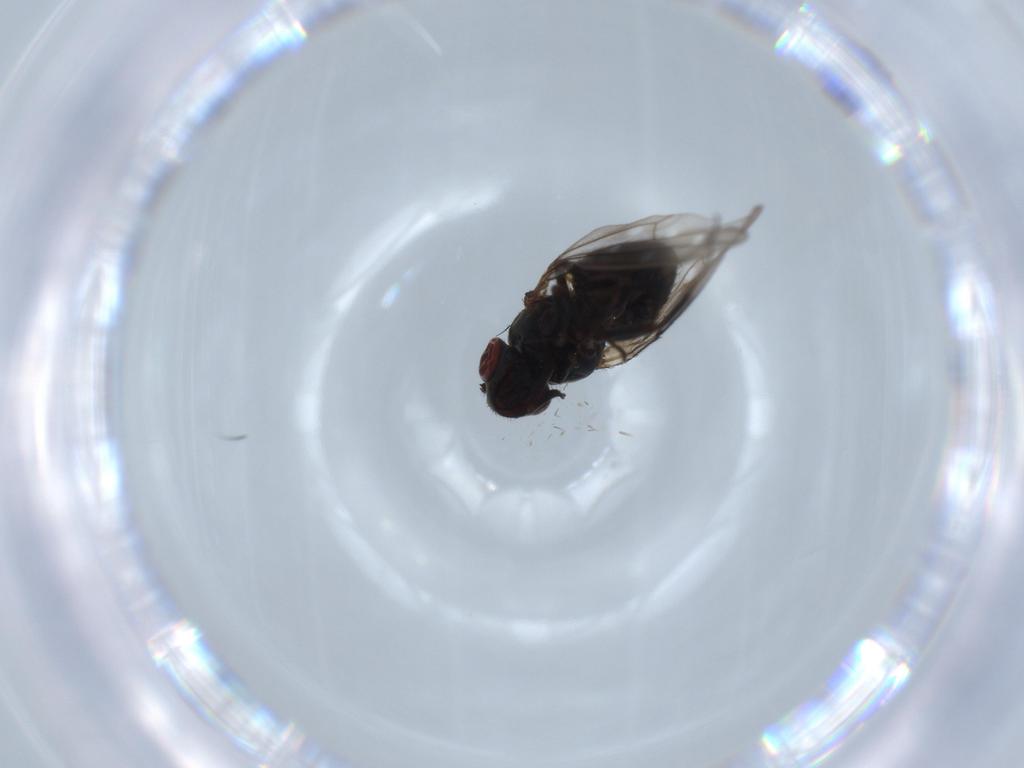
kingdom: Animalia
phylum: Arthropoda
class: Insecta
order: Diptera
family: Ephydridae
